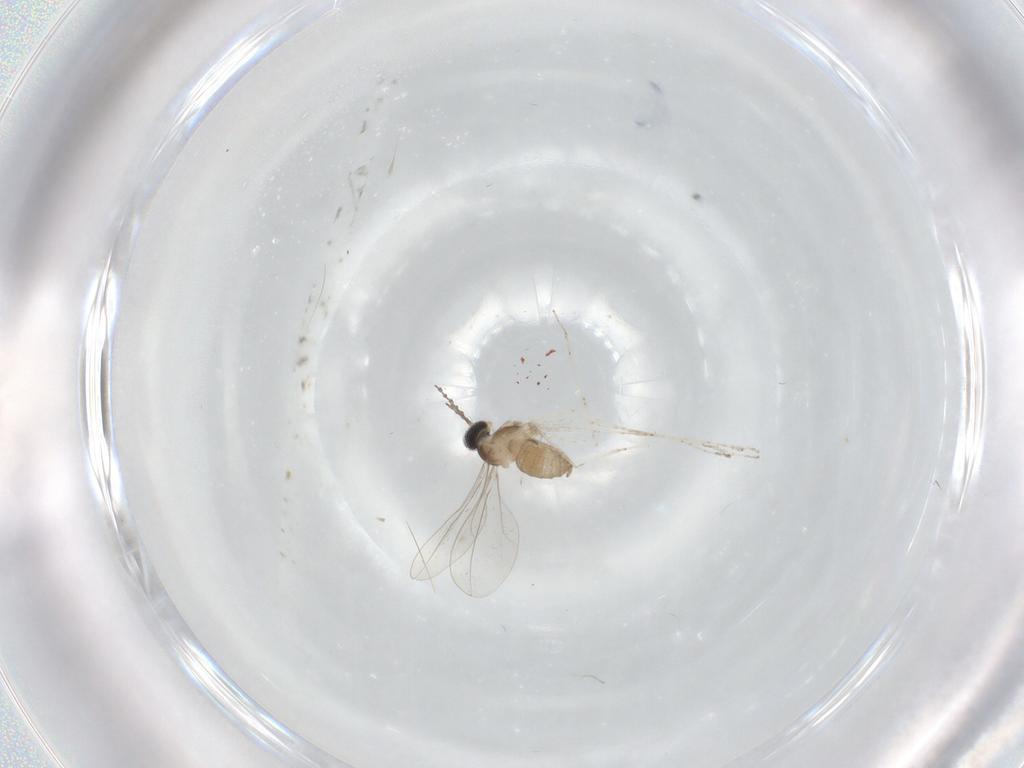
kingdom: Animalia
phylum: Arthropoda
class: Insecta
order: Diptera
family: Cecidomyiidae
